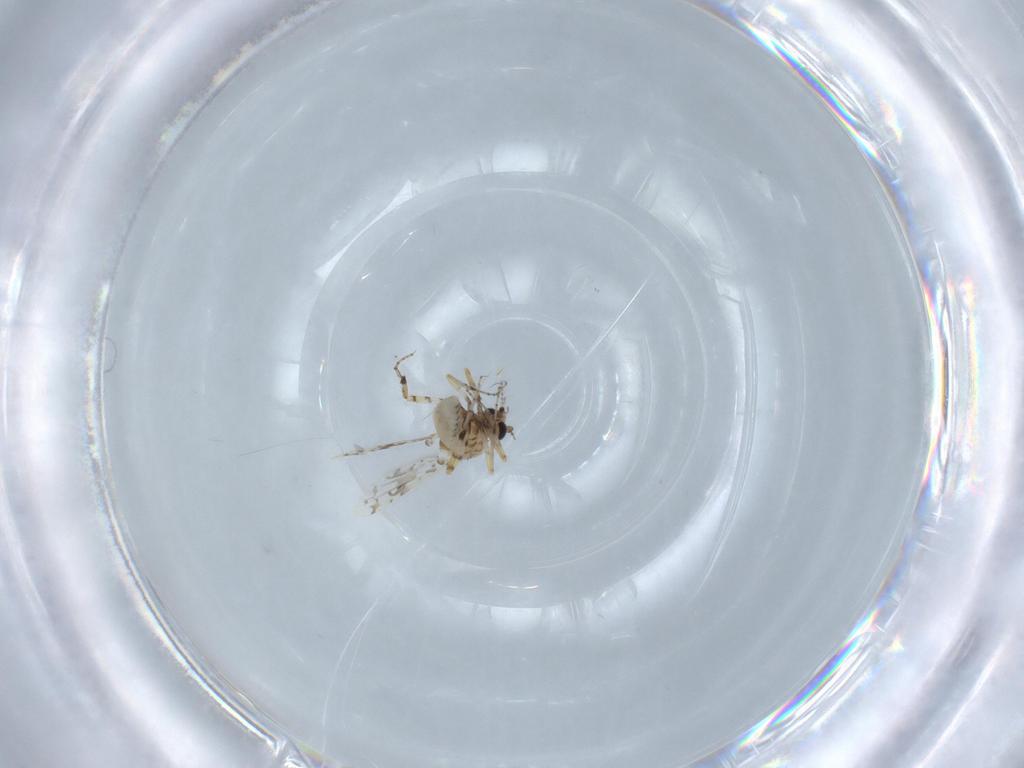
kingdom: Animalia
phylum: Arthropoda
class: Insecta
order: Diptera
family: Ceratopogonidae
